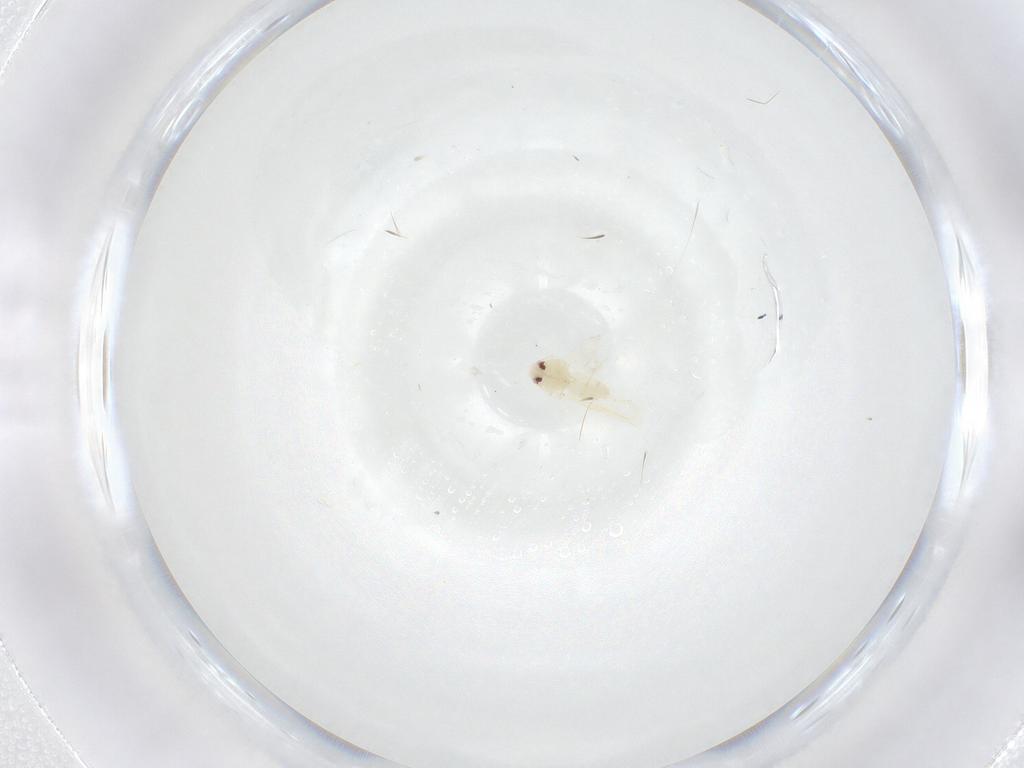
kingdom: Animalia
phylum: Arthropoda
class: Insecta
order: Hemiptera
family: Aleyrodidae
